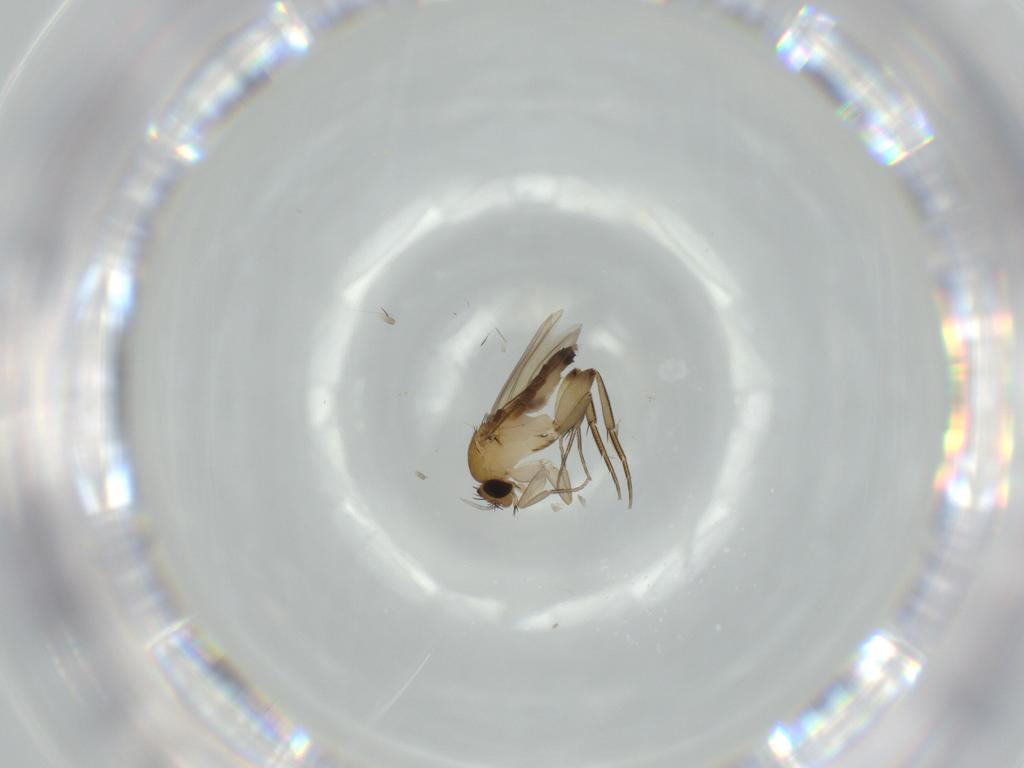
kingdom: Animalia
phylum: Arthropoda
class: Insecta
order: Diptera
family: Phoridae
